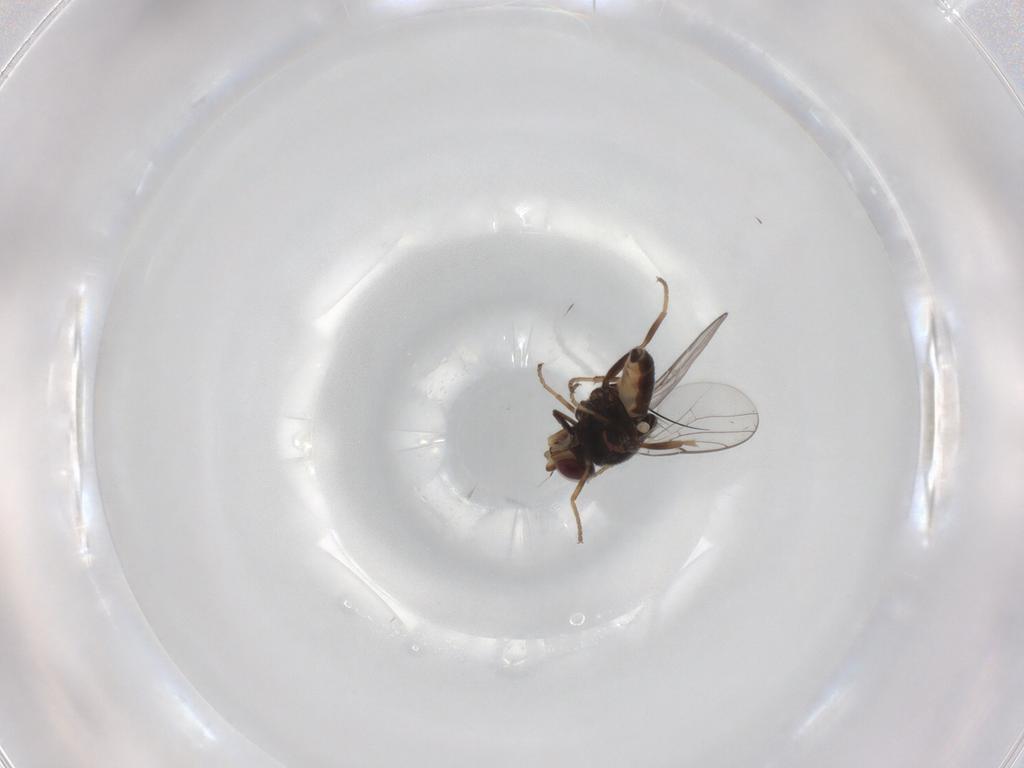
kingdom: Animalia
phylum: Arthropoda
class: Insecta
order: Diptera
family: Chloropidae
